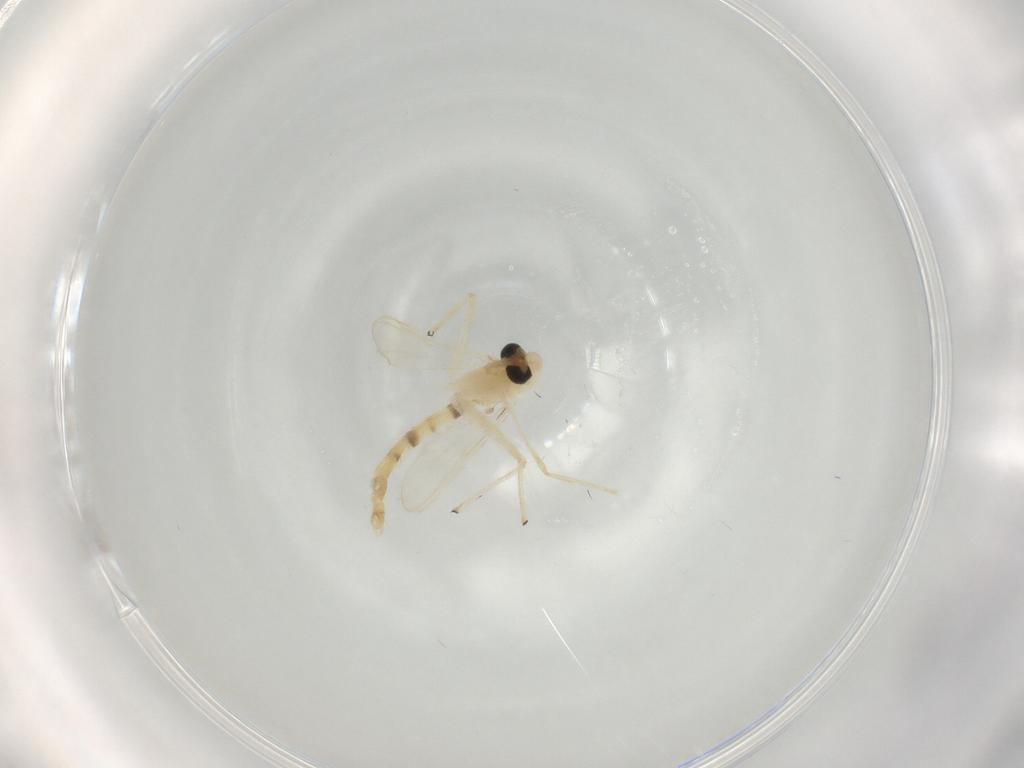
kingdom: Animalia
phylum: Arthropoda
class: Insecta
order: Diptera
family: Chironomidae
